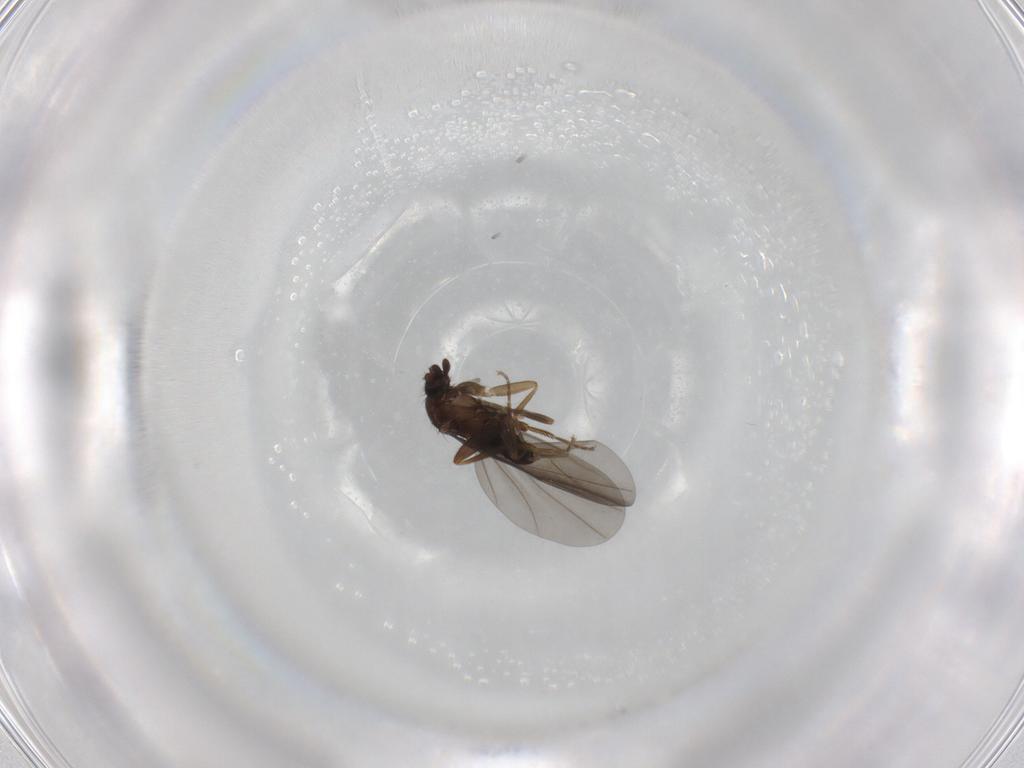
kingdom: Animalia
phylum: Arthropoda
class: Insecta
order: Diptera
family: Sciaridae
